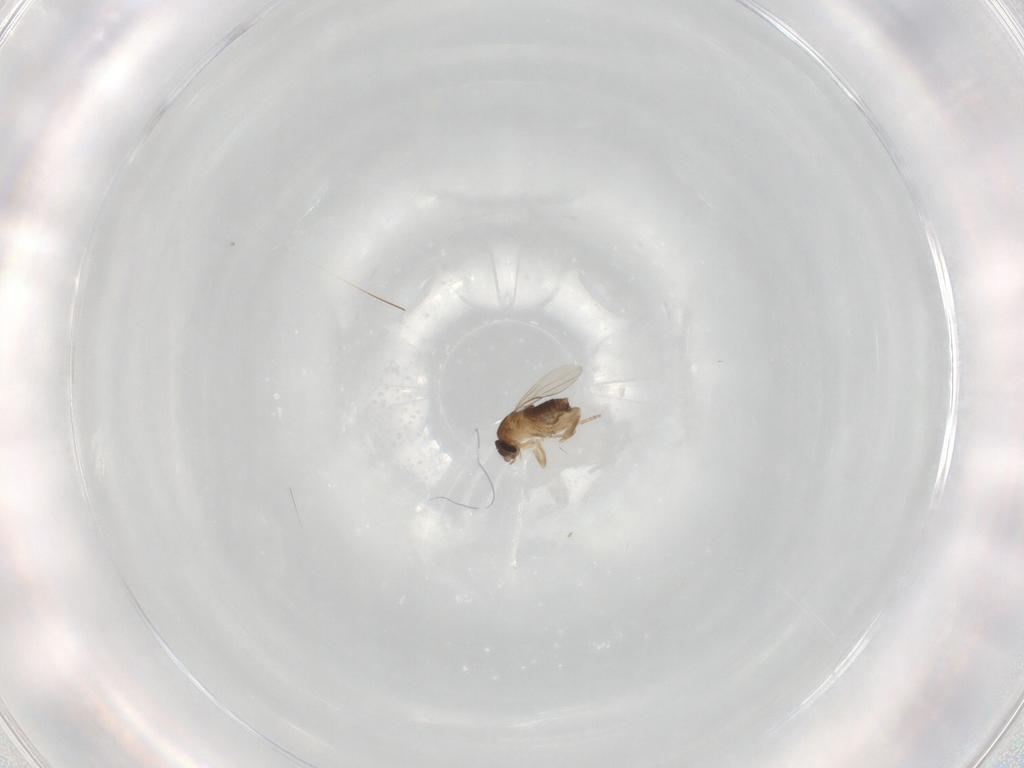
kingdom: Animalia
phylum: Arthropoda
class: Insecta
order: Diptera
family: Phoridae
